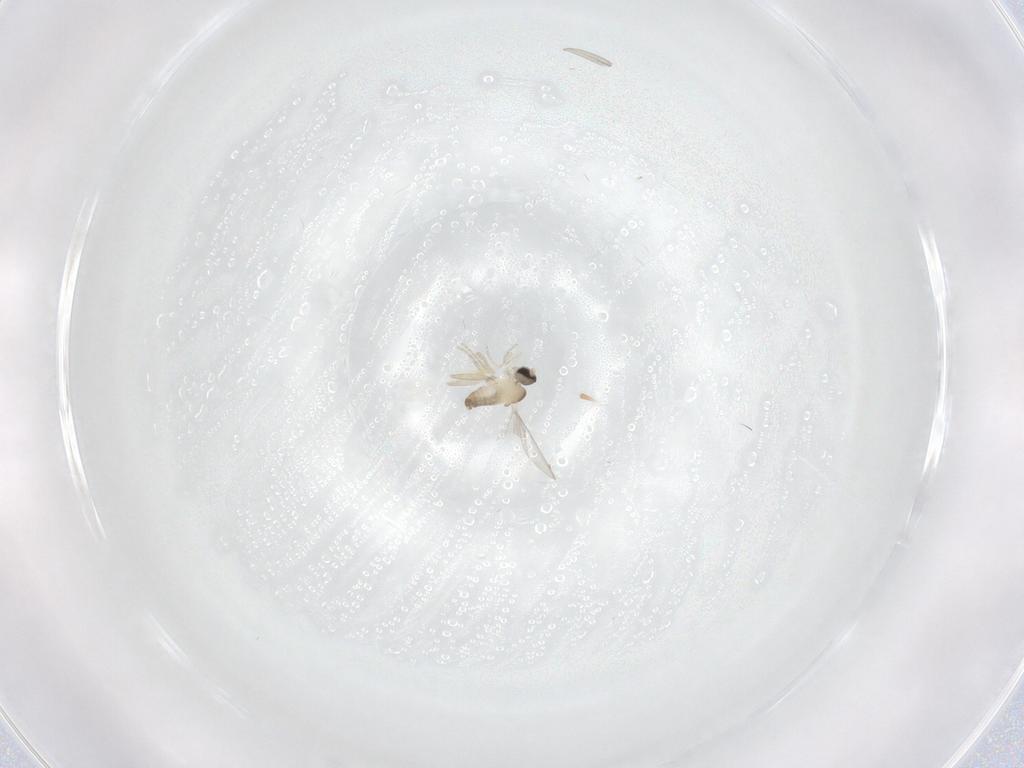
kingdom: Animalia
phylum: Arthropoda
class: Insecta
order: Diptera
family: Cecidomyiidae
